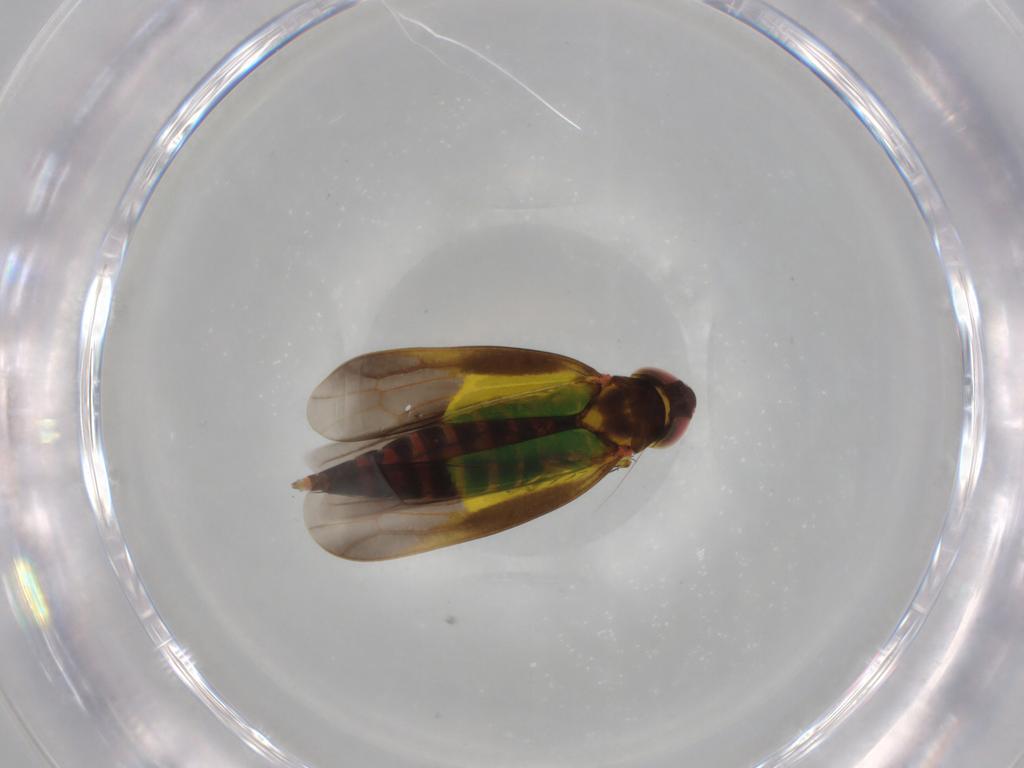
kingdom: Animalia
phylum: Arthropoda
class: Insecta
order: Hemiptera
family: Cicadellidae
